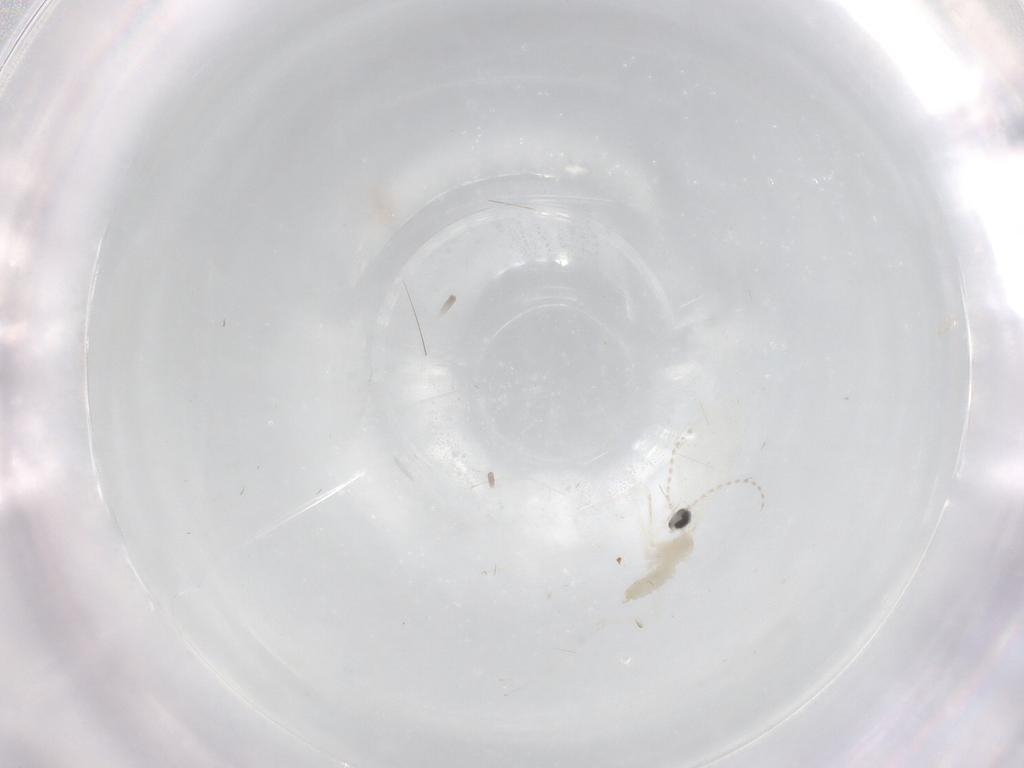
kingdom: Animalia
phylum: Arthropoda
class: Insecta
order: Diptera
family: Chironomidae
